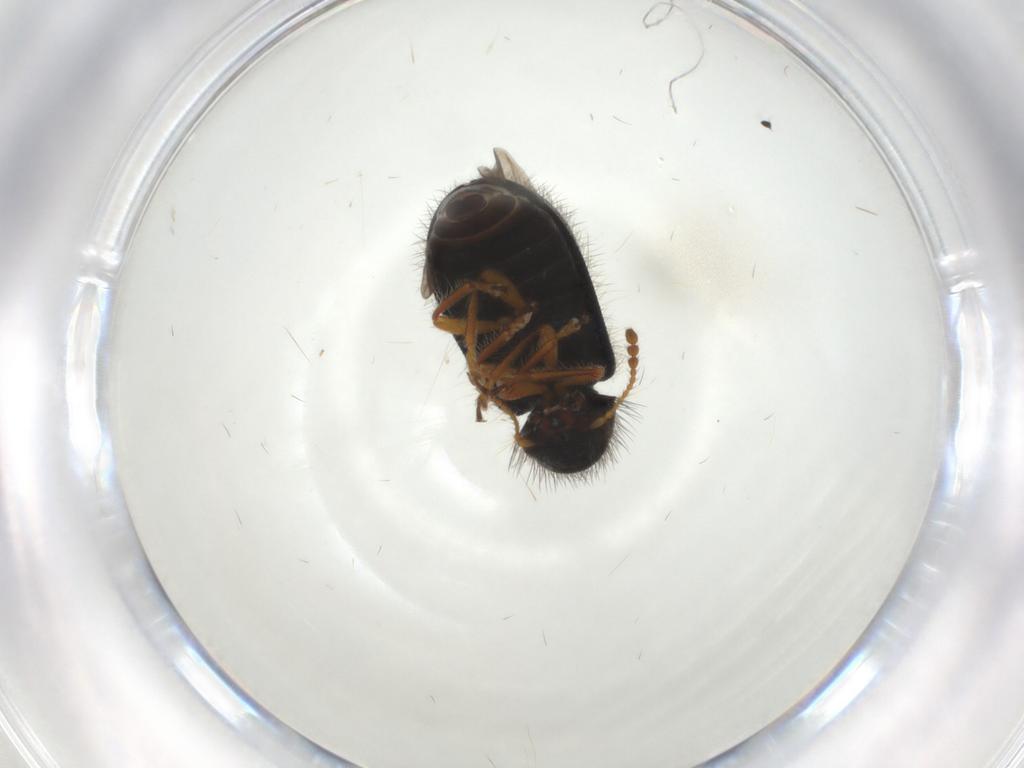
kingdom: Animalia
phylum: Arthropoda
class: Insecta
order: Coleoptera
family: Cleridae
